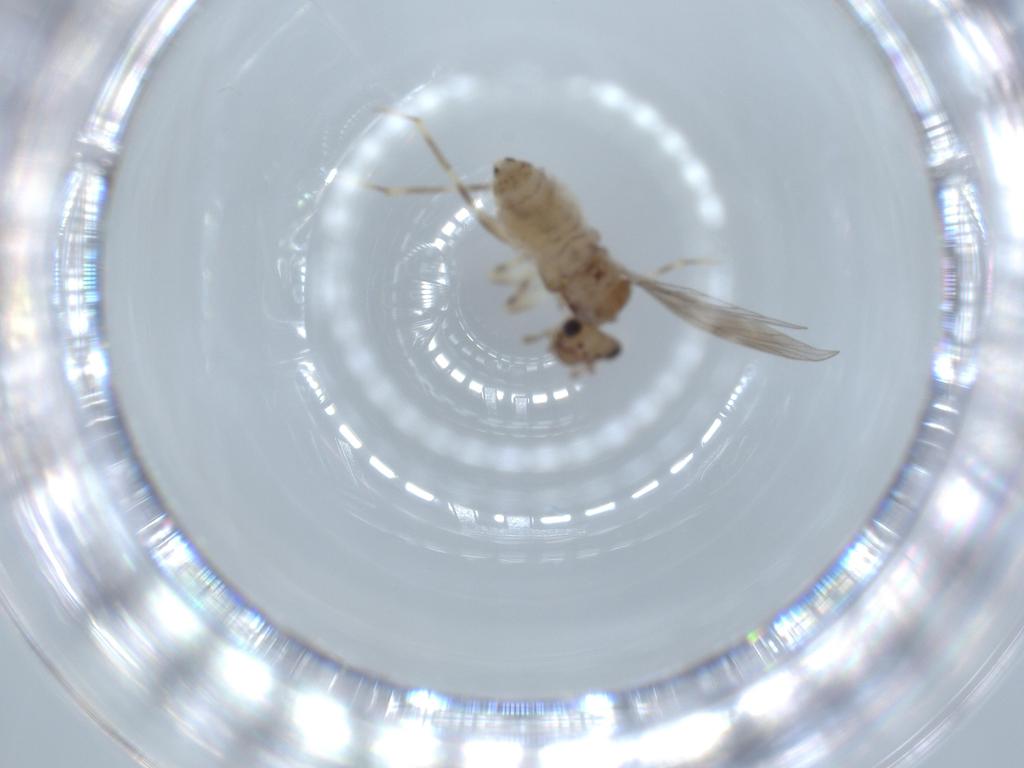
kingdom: Animalia
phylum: Arthropoda
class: Insecta
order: Psocodea
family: Lepidopsocidae
